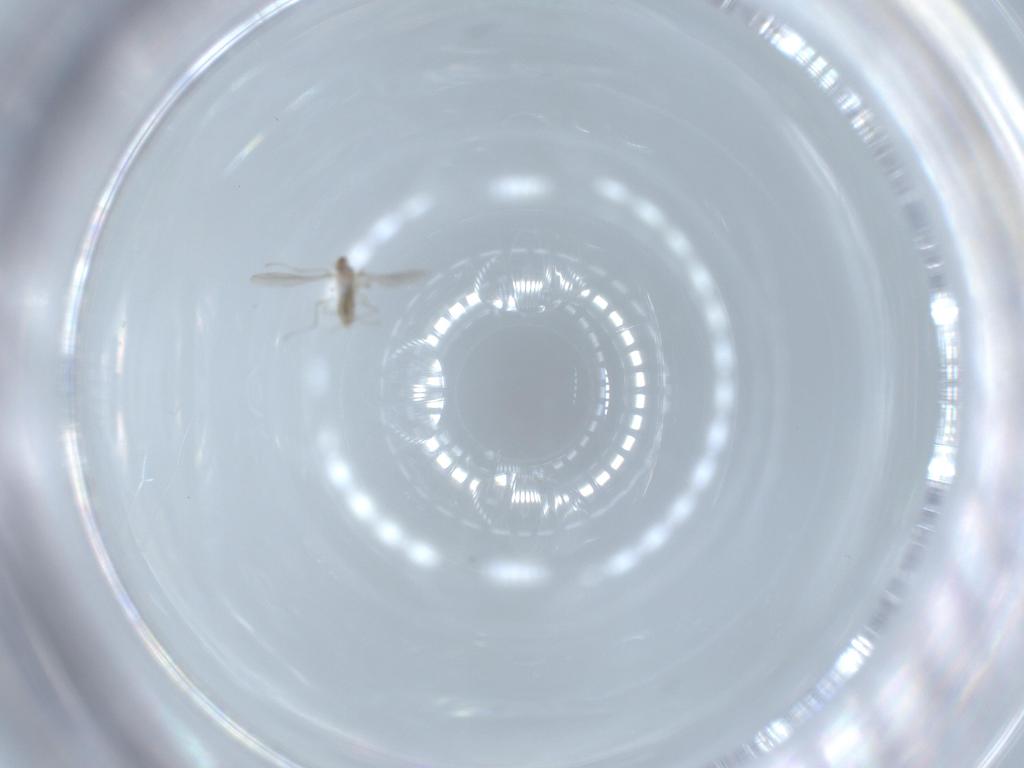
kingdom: Animalia
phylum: Arthropoda
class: Insecta
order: Diptera
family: Cecidomyiidae
